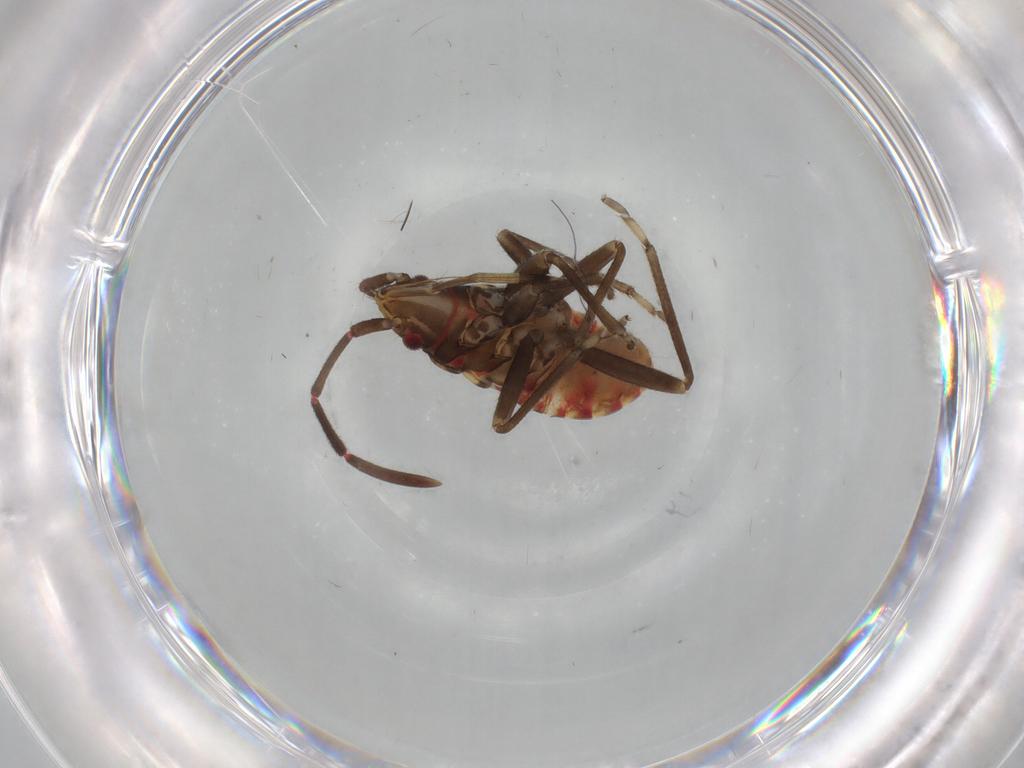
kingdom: Animalia
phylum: Arthropoda
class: Insecta
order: Hemiptera
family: Rhyparochromidae
